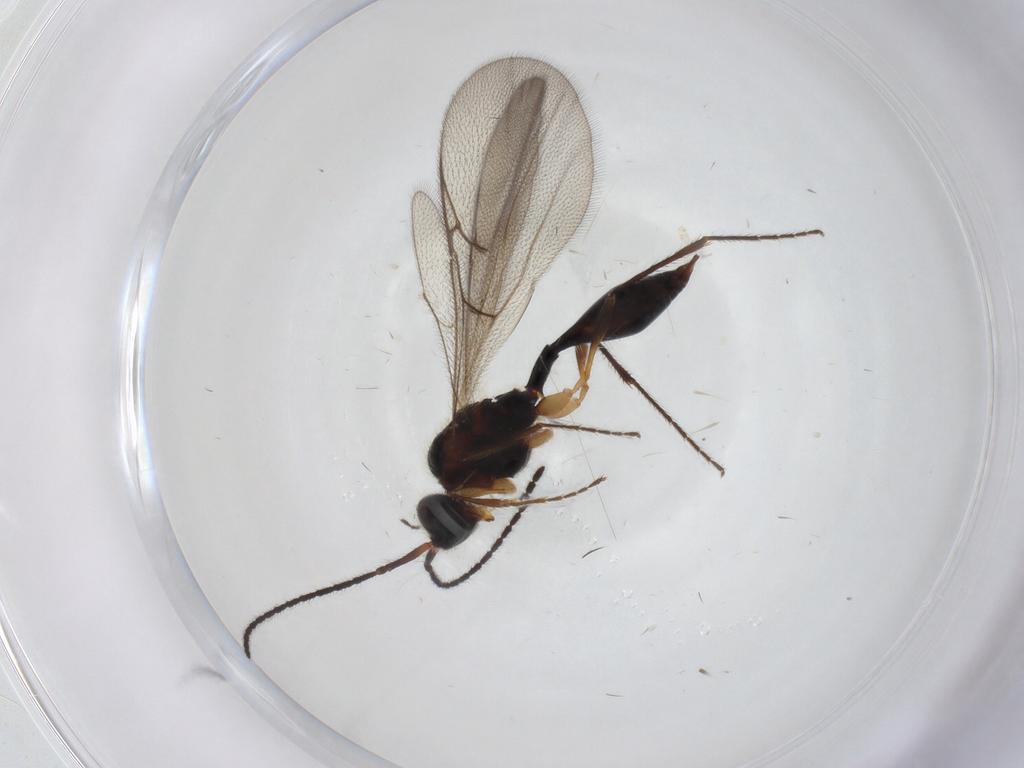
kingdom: Animalia
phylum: Arthropoda
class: Insecta
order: Hymenoptera
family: Diapriidae
